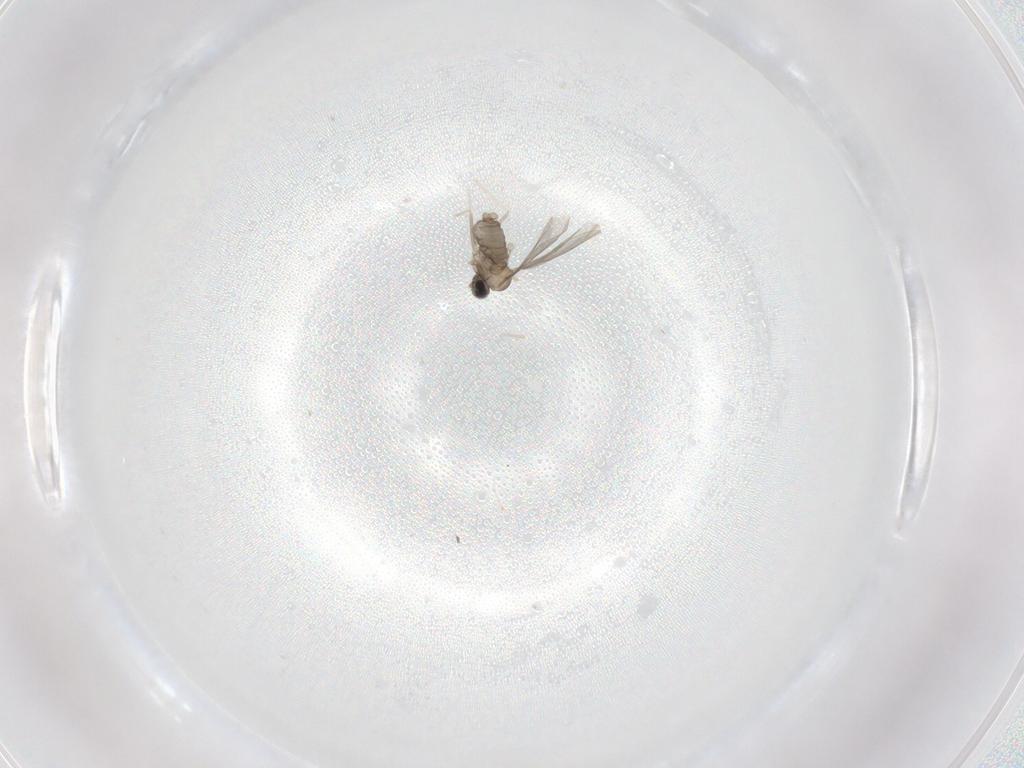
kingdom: Animalia
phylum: Arthropoda
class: Insecta
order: Diptera
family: Cecidomyiidae
